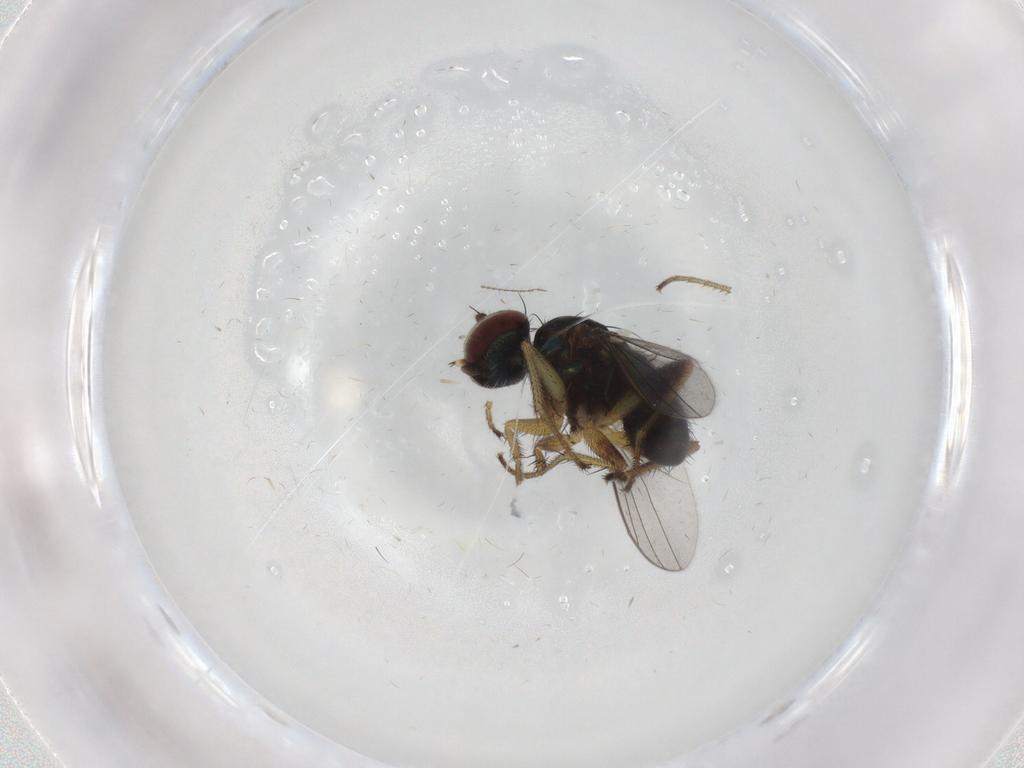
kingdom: Animalia
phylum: Arthropoda
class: Insecta
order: Diptera
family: Dolichopodidae
